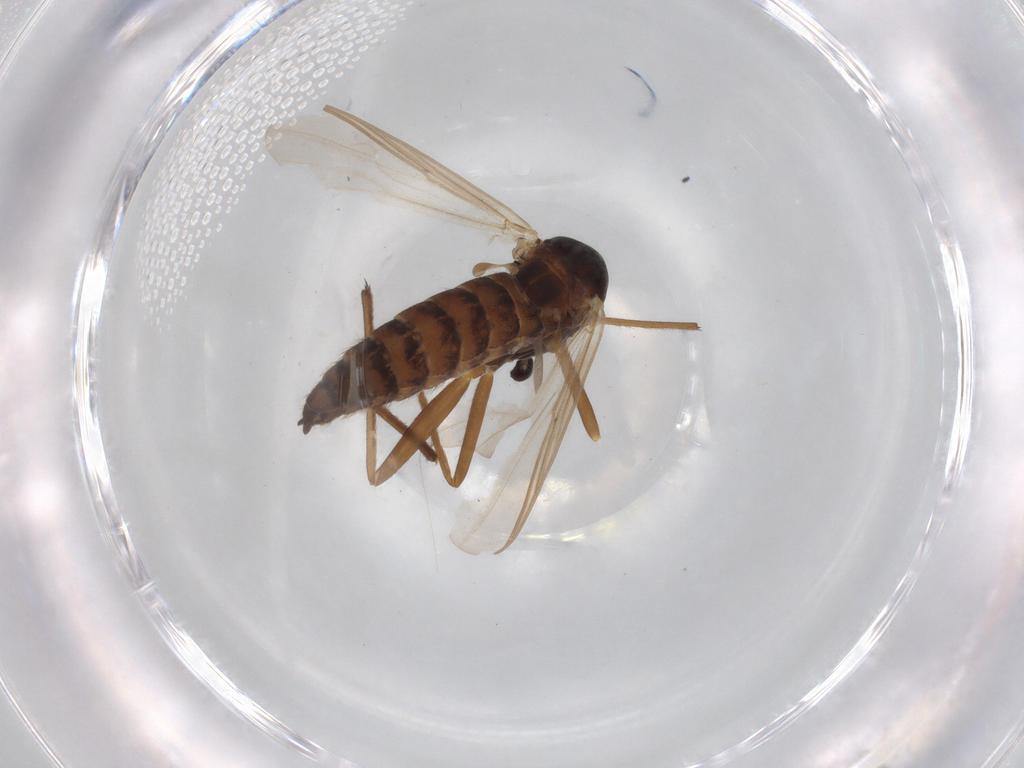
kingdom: Animalia
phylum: Arthropoda
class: Insecta
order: Diptera
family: Chironomidae
